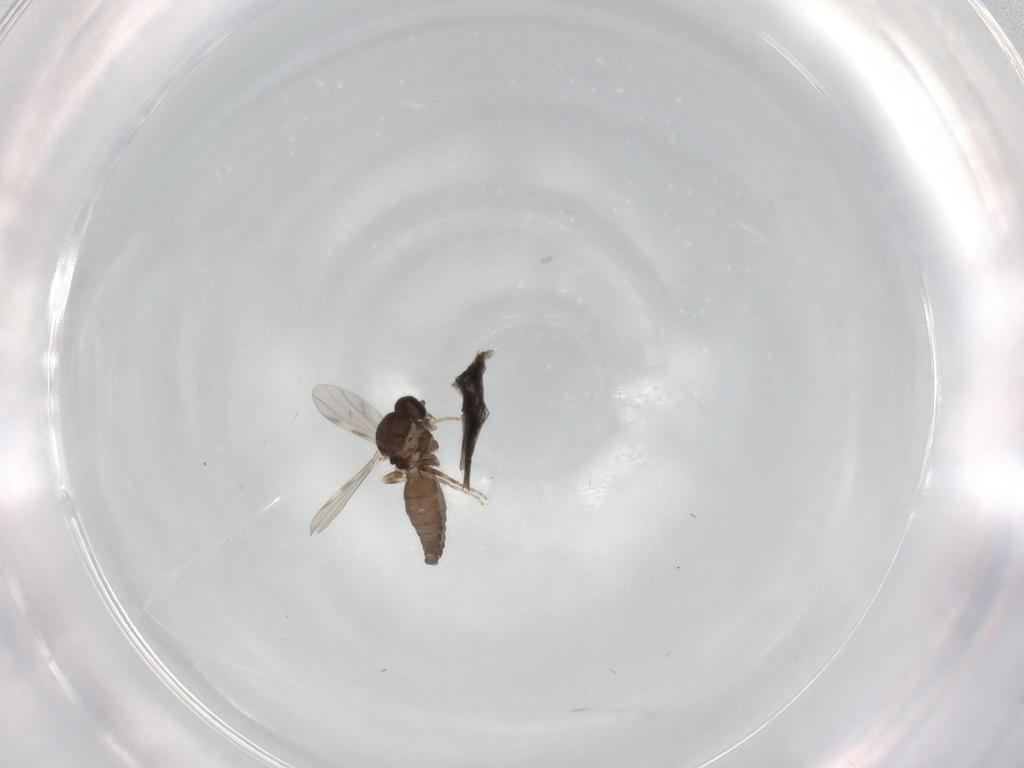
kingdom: Animalia
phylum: Arthropoda
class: Insecta
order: Diptera
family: Ceratopogonidae
